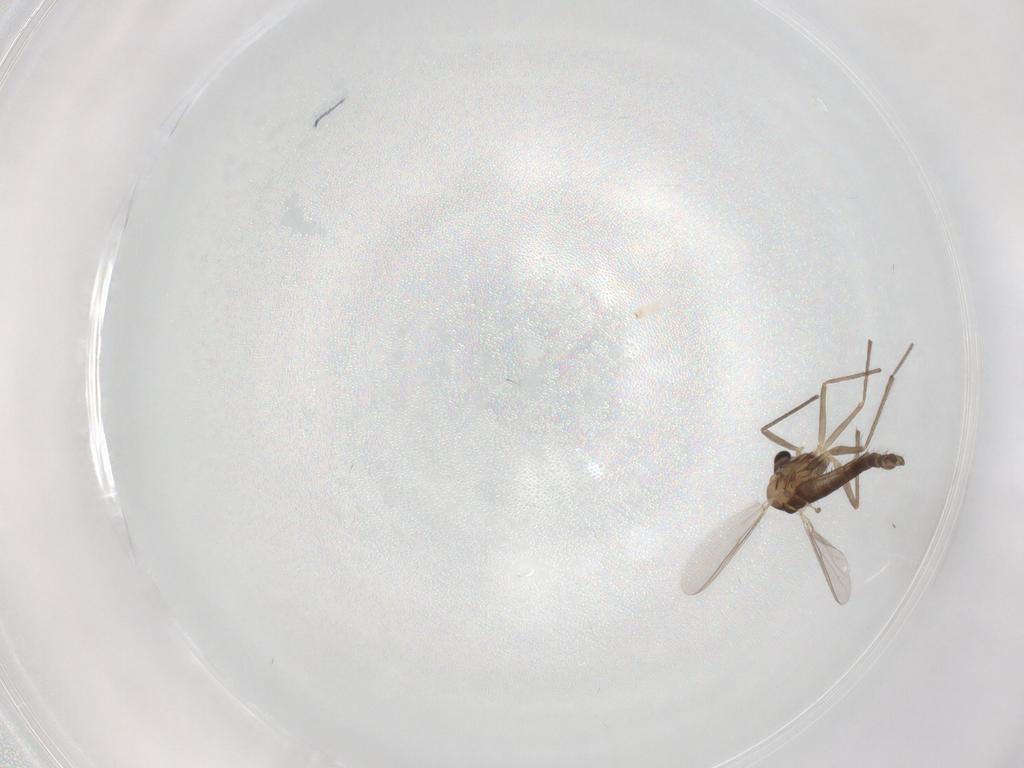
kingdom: Animalia
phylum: Arthropoda
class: Insecta
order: Diptera
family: Chironomidae
